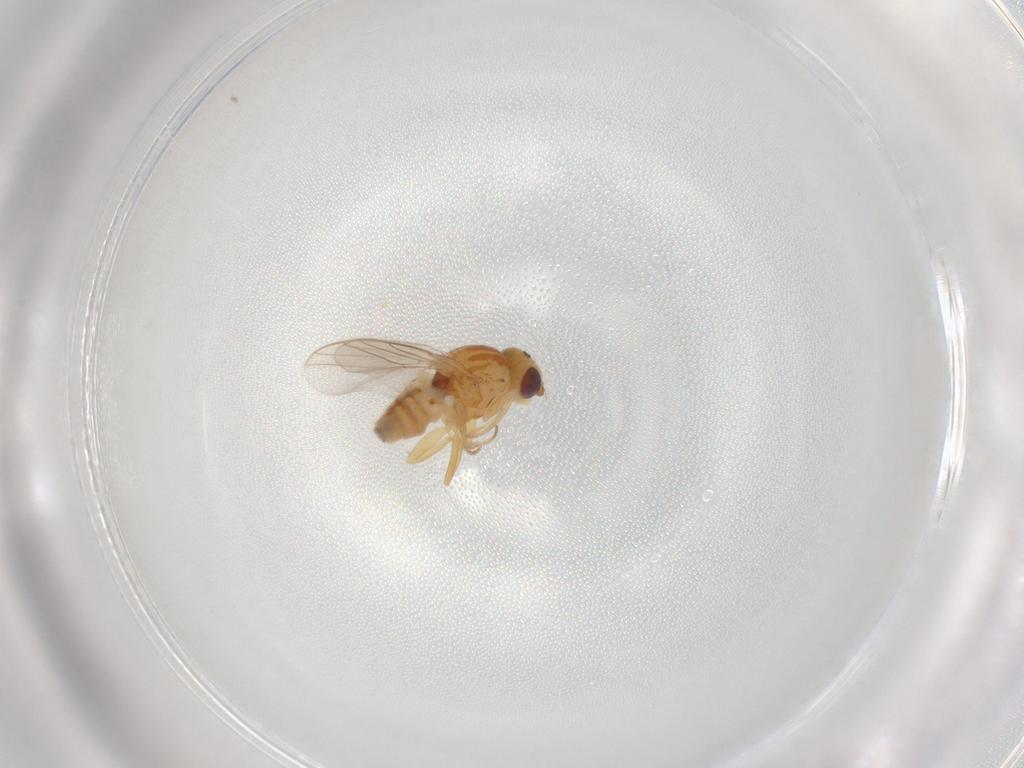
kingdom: Animalia
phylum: Arthropoda
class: Insecta
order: Diptera
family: Chloropidae
